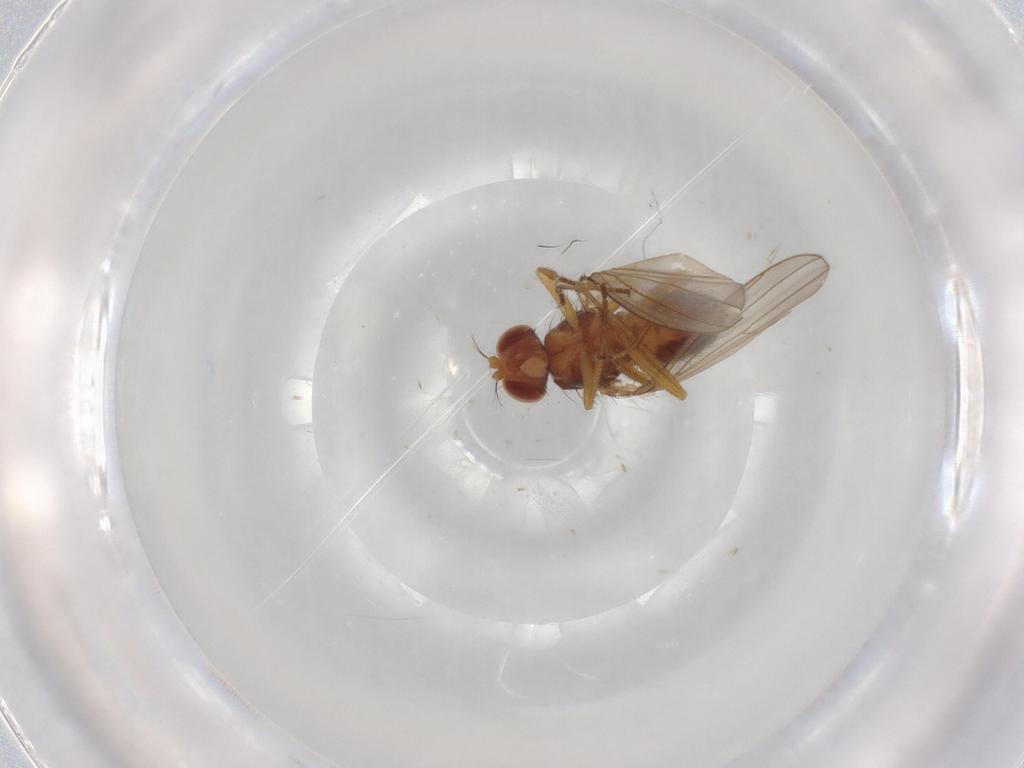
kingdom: Animalia
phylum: Arthropoda
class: Insecta
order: Diptera
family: Drosophilidae
